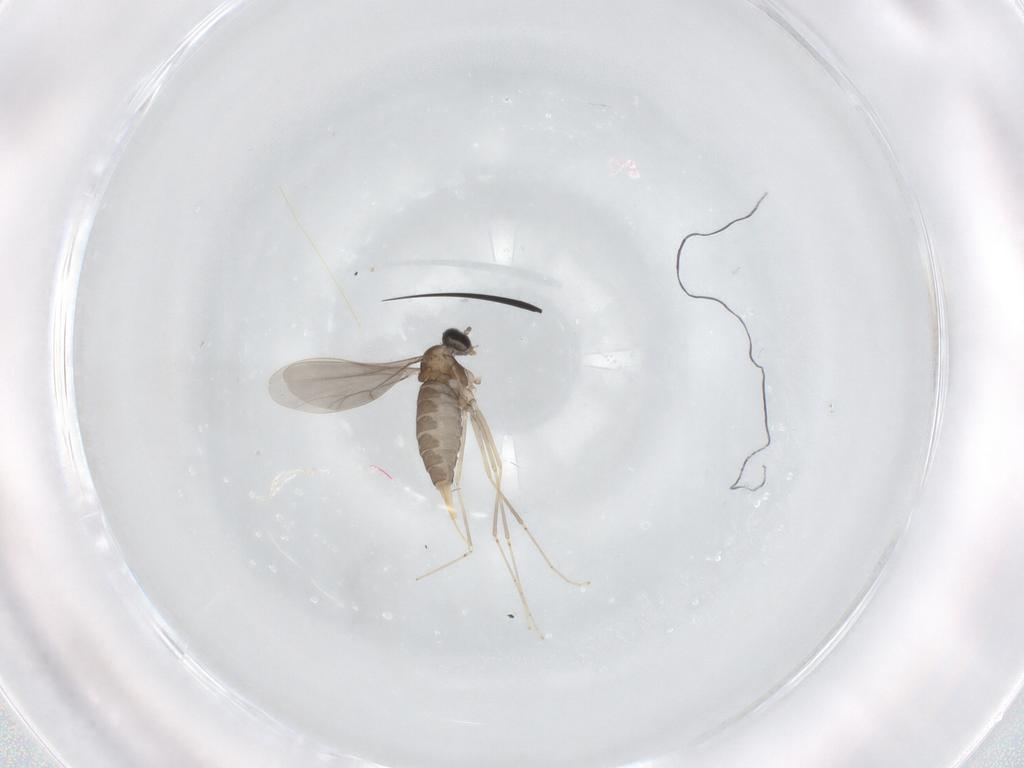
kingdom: Animalia
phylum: Arthropoda
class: Insecta
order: Diptera
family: Cecidomyiidae
